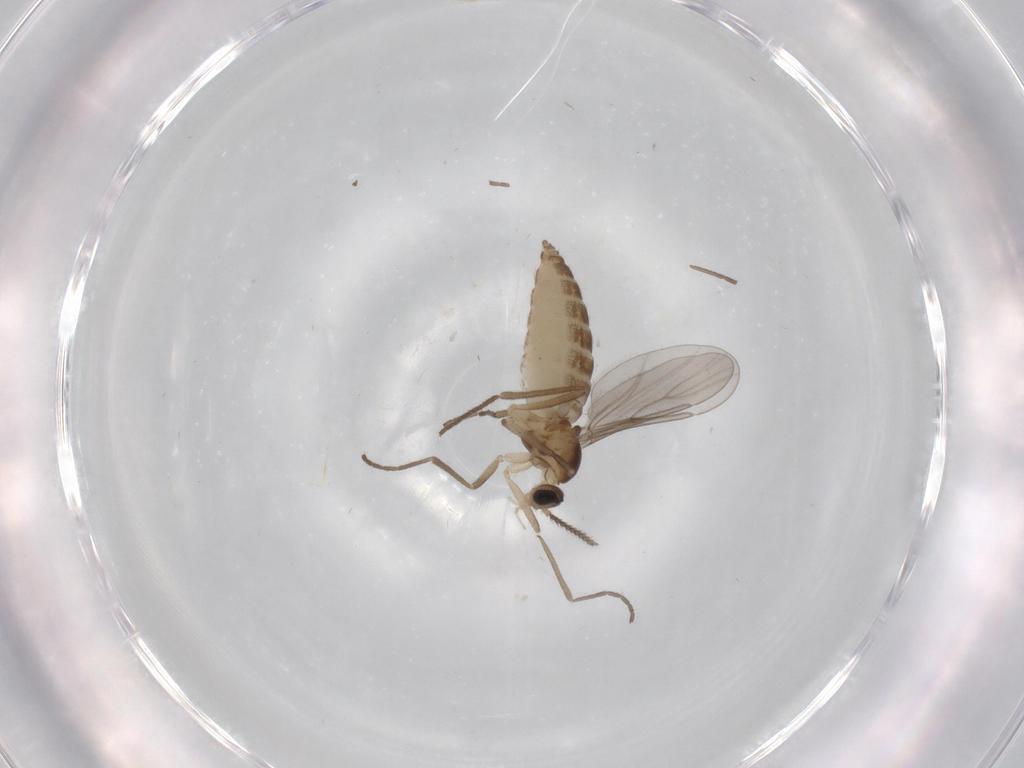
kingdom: Animalia
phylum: Arthropoda
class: Insecta
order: Diptera
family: Cecidomyiidae
